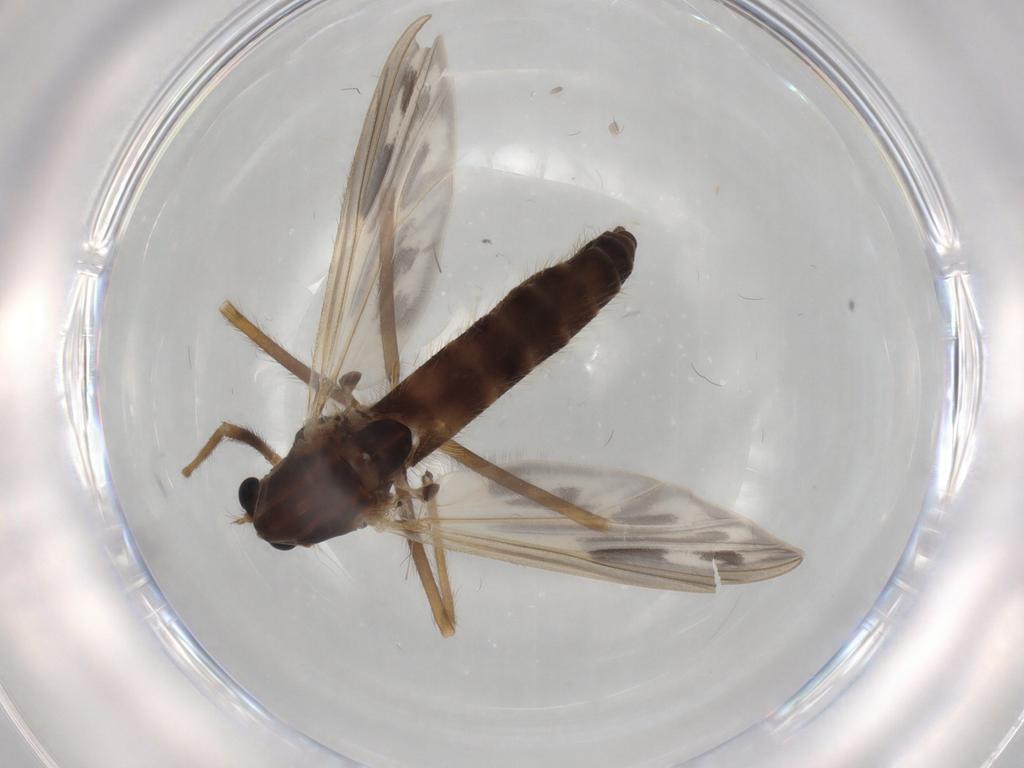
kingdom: Animalia
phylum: Arthropoda
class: Insecta
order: Diptera
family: Chironomidae
